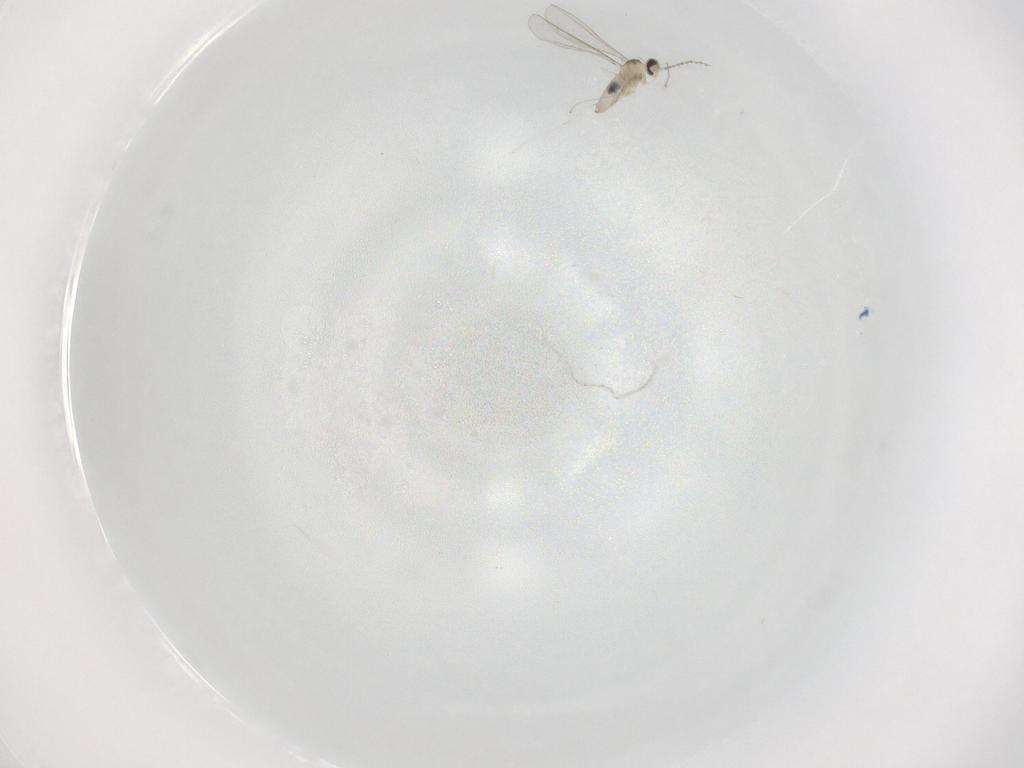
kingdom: Animalia
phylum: Arthropoda
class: Insecta
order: Diptera
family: Cecidomyiidae
